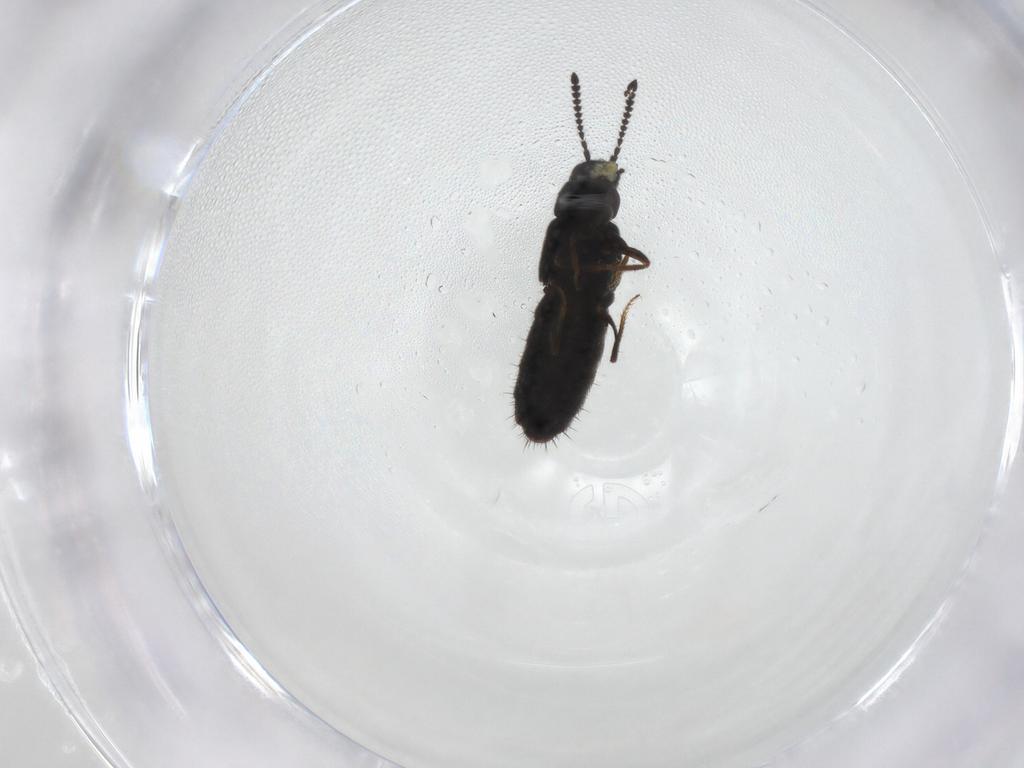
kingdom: Animalia
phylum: Arthropoda
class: Insecta
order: Coleoptera
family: Staphylinidae
